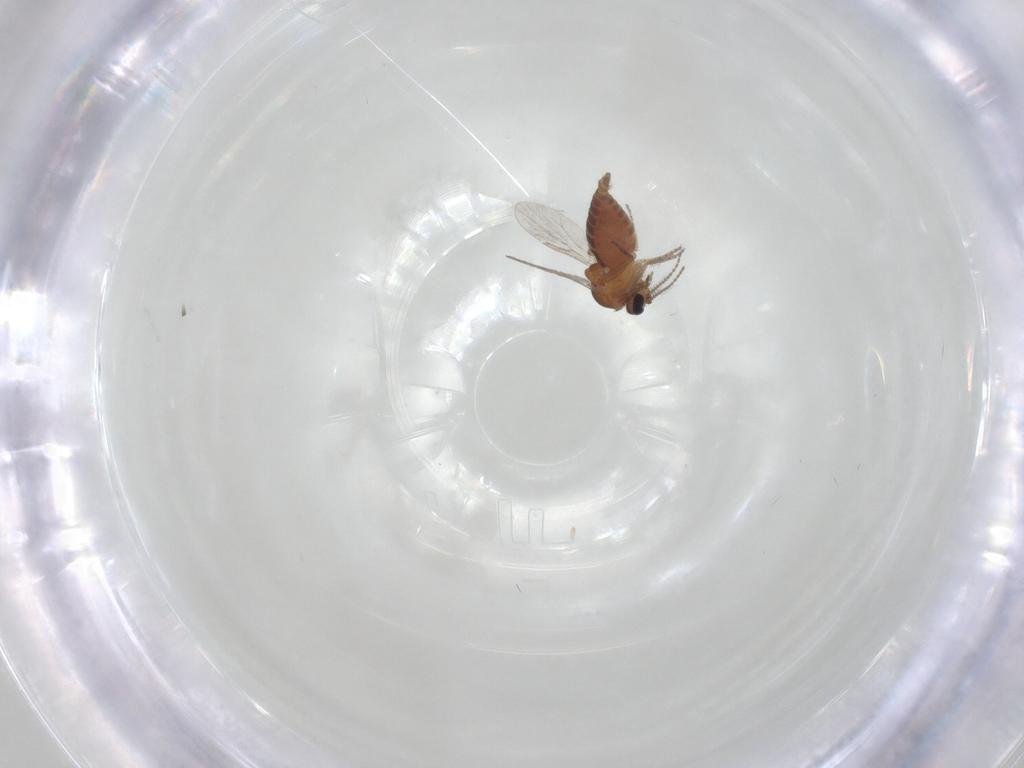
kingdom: Animalia
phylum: Arthropoda
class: Insecta
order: Diptera
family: Ceratopogonidae
